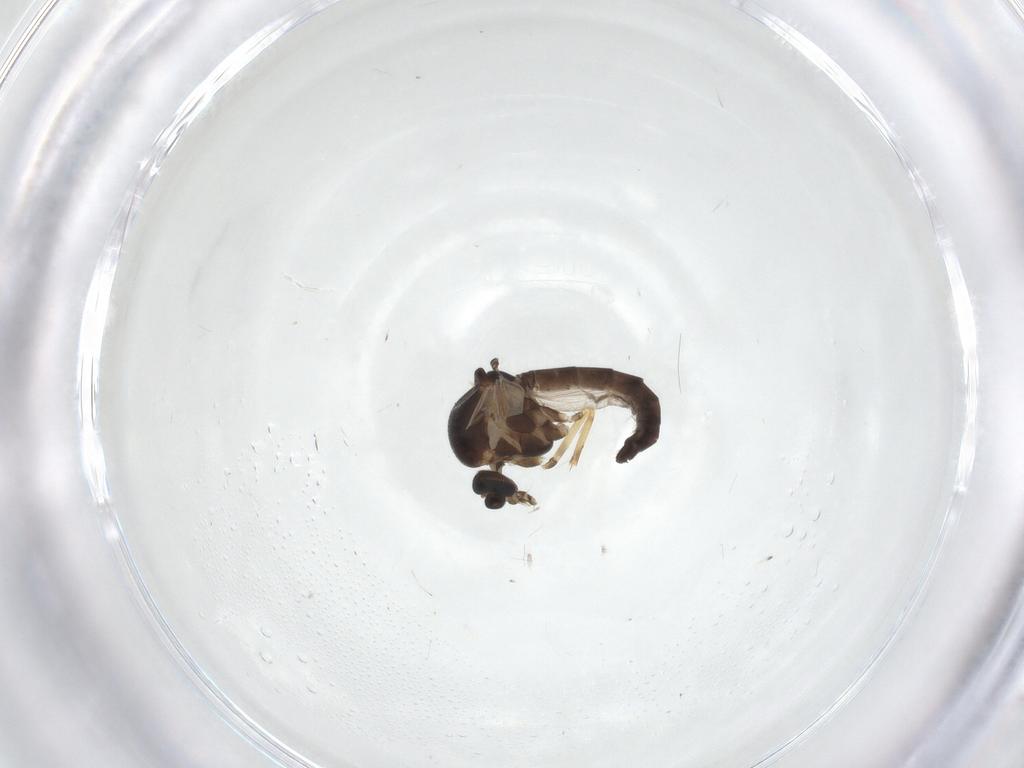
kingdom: Animalia
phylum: Arthropoda
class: Insecta
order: Diptera
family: Ceratopogonidae
